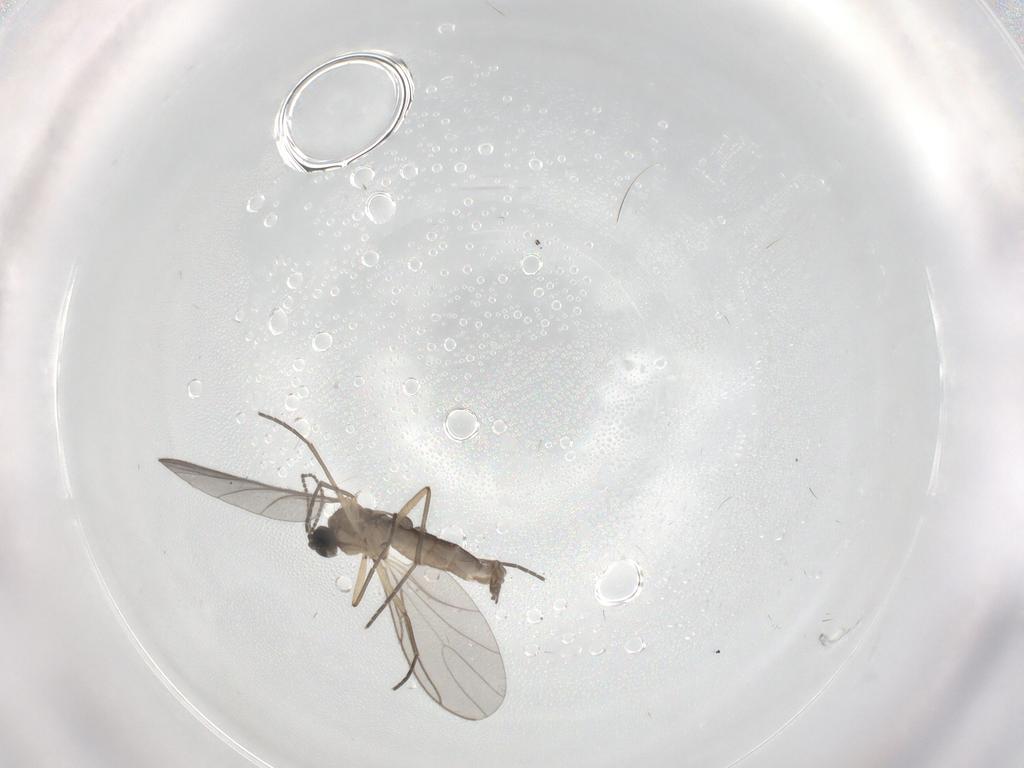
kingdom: Animalia
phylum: Arthropoda
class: Insecta
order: Diptera
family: Sciaridae
